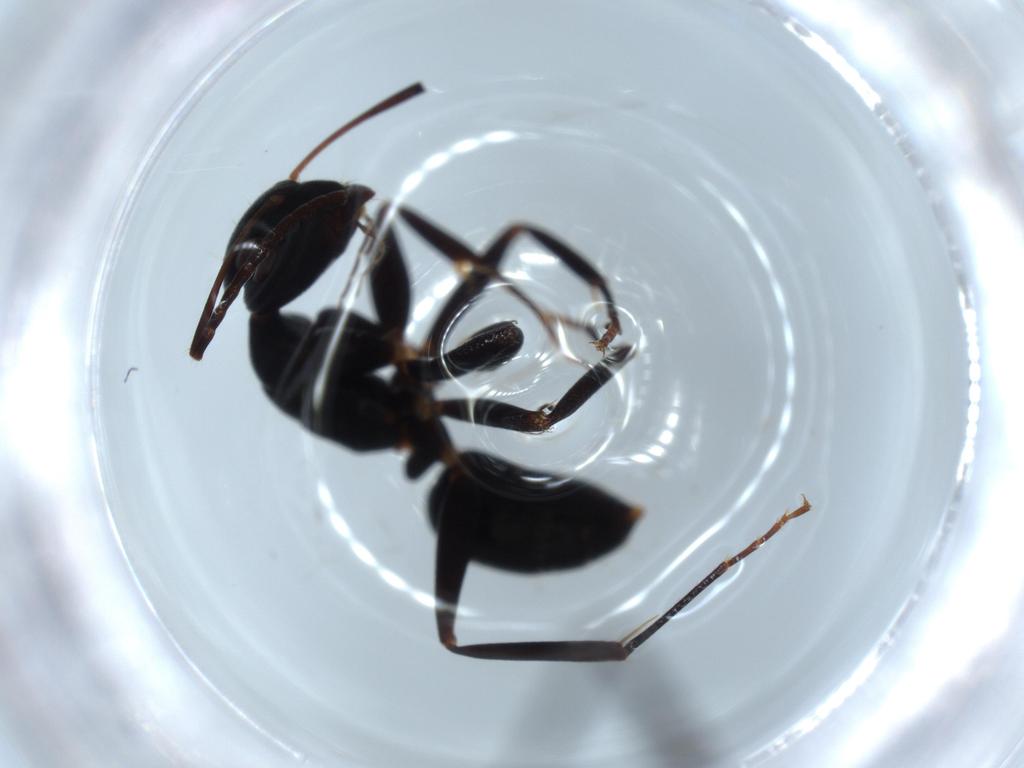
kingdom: Animalia
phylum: Arthropoda
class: Insecta
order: Hymenoptera
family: Formicidae
